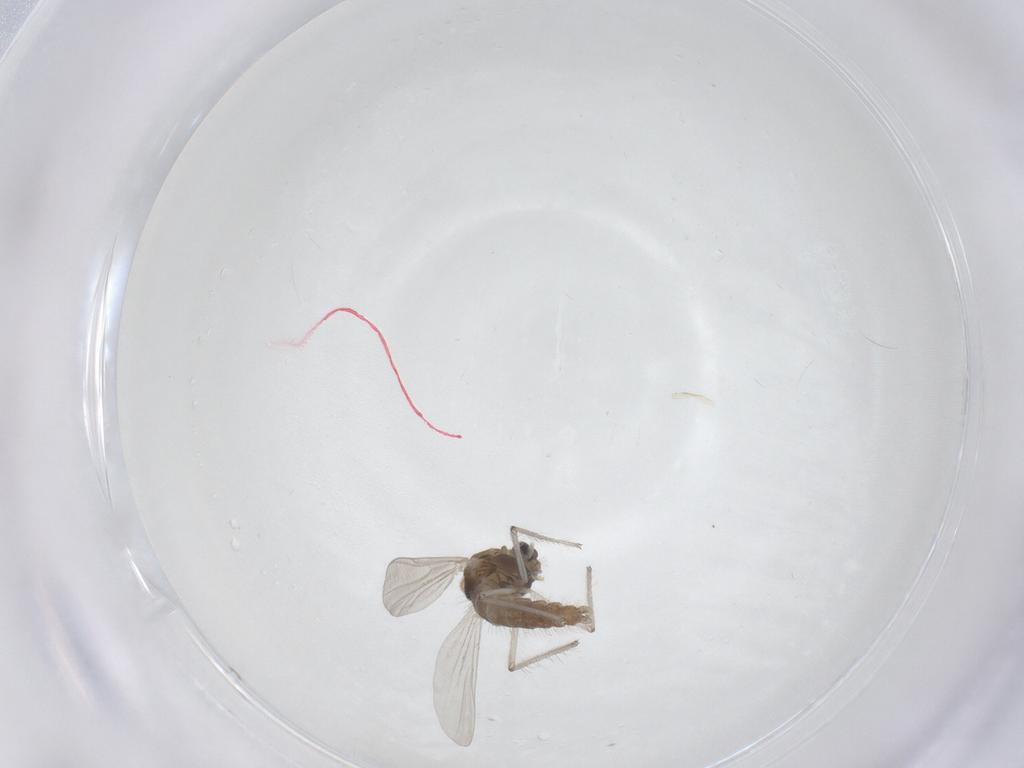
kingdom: Animalia
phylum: Arthropoda
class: Insecta
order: Diptera
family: Chironomidae
